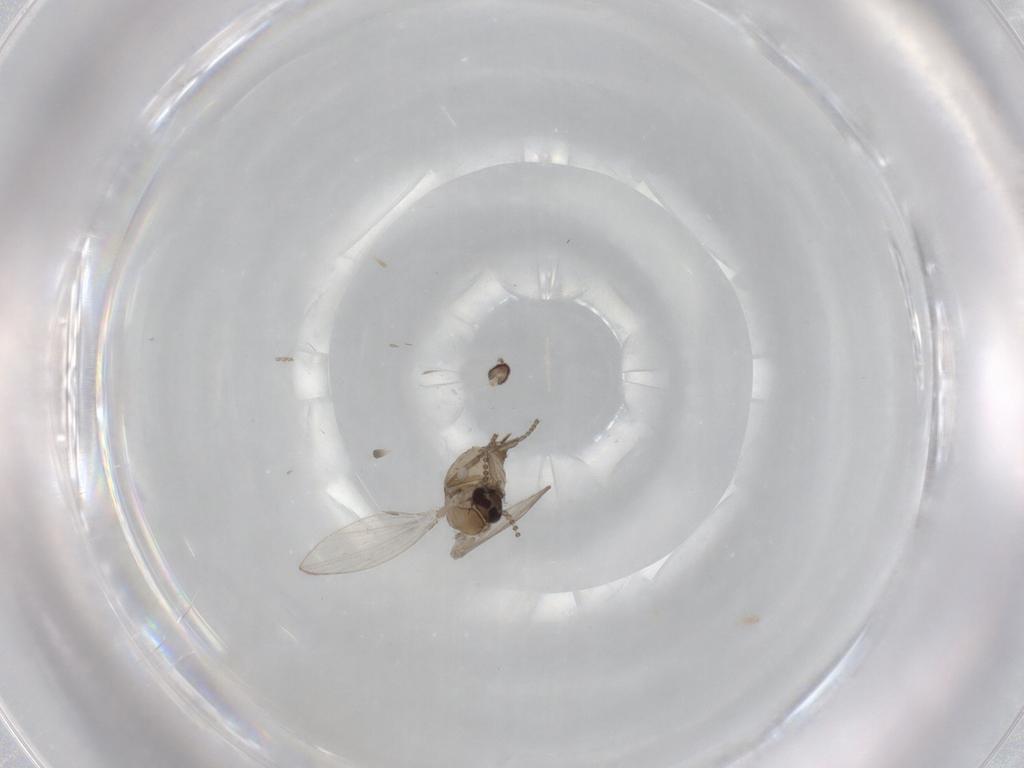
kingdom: Animalia
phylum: Arthropoda
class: Insecta
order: Diptera
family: Psychodidae
